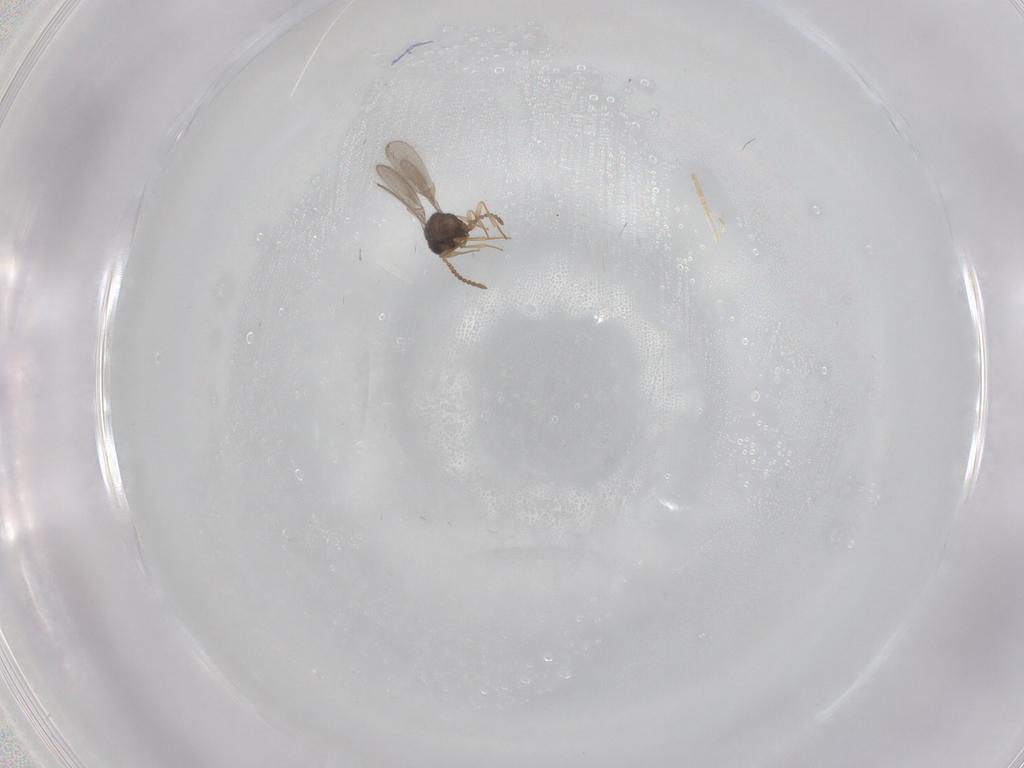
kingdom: Animalia
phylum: Arthropoda
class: Insecta
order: Hymenoptera
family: Scelionidae
